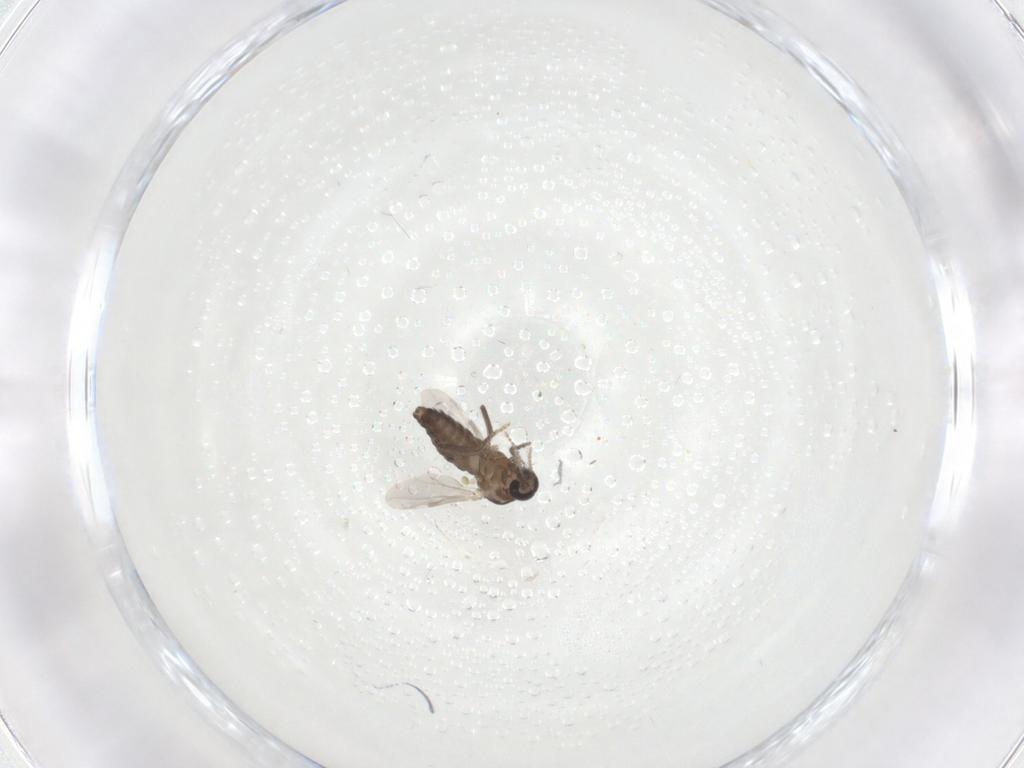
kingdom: Animalia
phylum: Arthropoda
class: Insecta
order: Diptera
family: Ceratopogonidae
